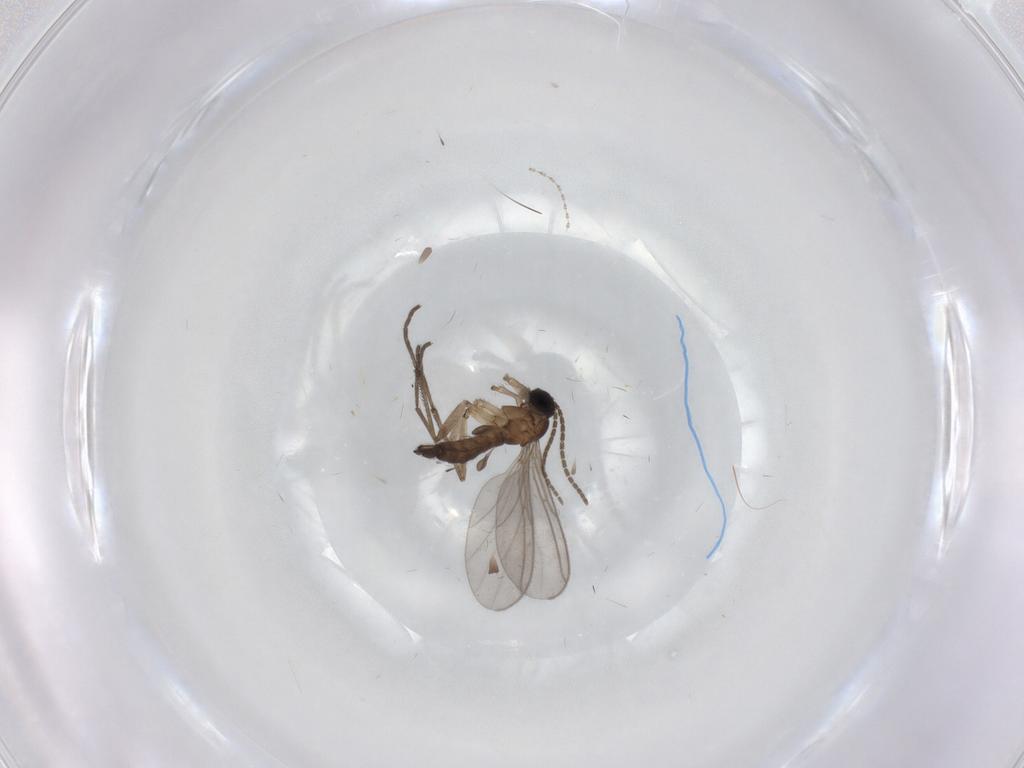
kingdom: Animalia
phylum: Arthropoda
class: Insecta
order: Diptera
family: Sciaridae
